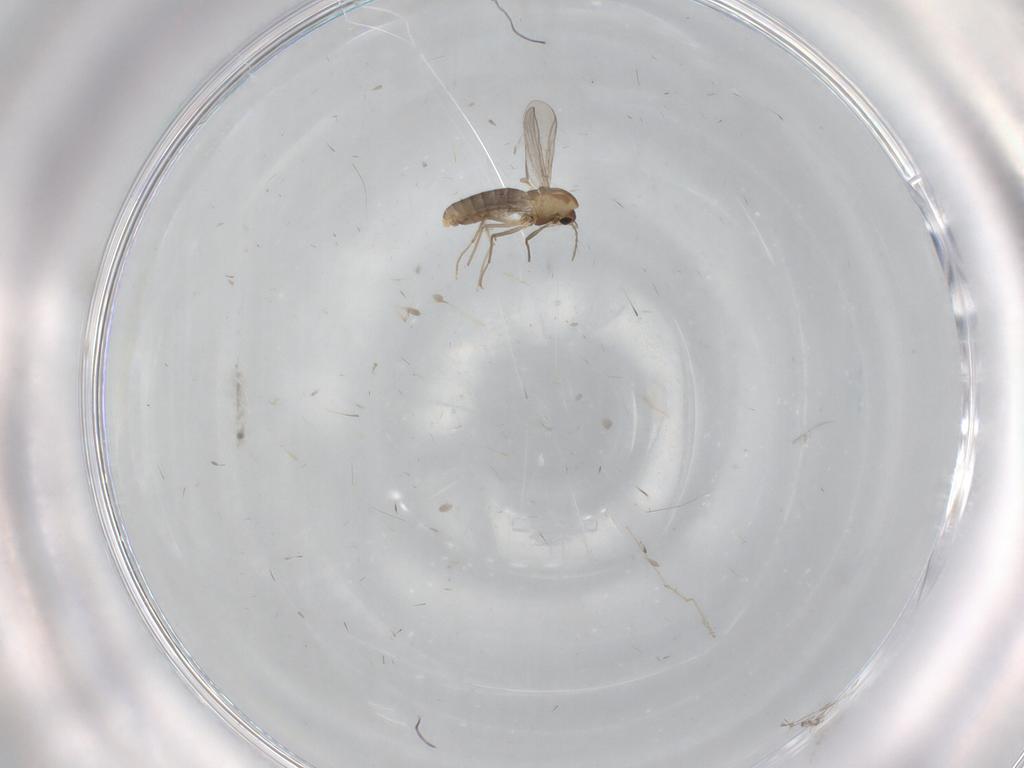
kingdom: Animalia
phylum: Arthropoda
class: Insecta
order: Diptera
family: Chironomidae
